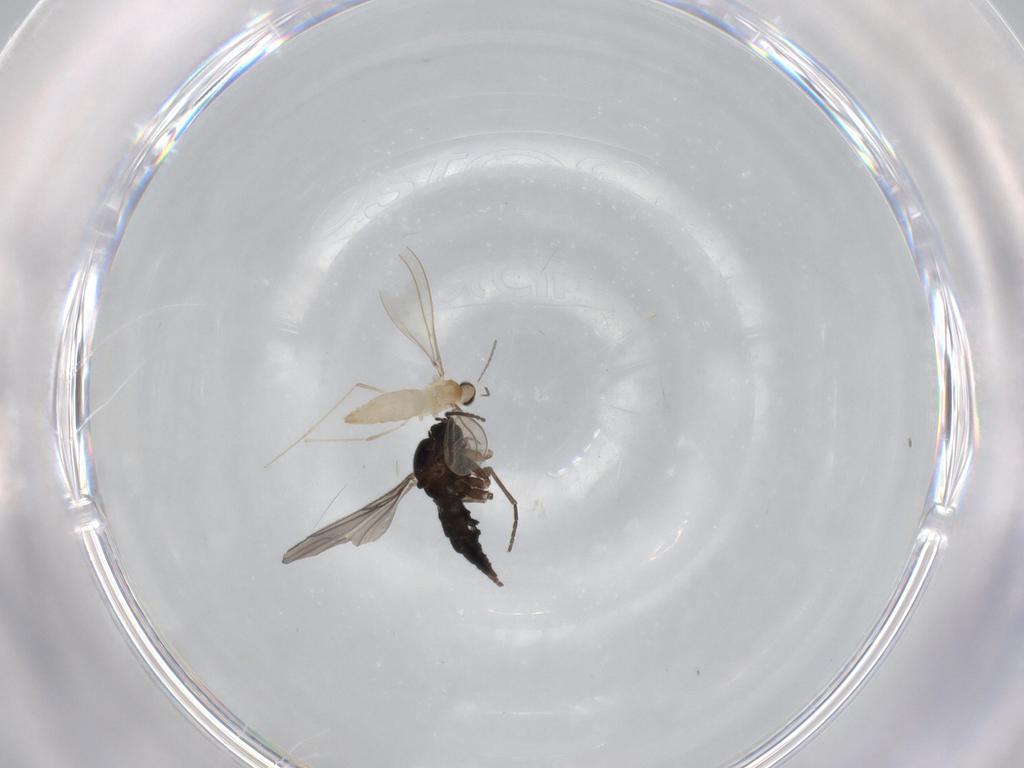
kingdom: Animalia
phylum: Arthropoda
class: Insecta
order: Diptera
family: Cecidomyiidae
